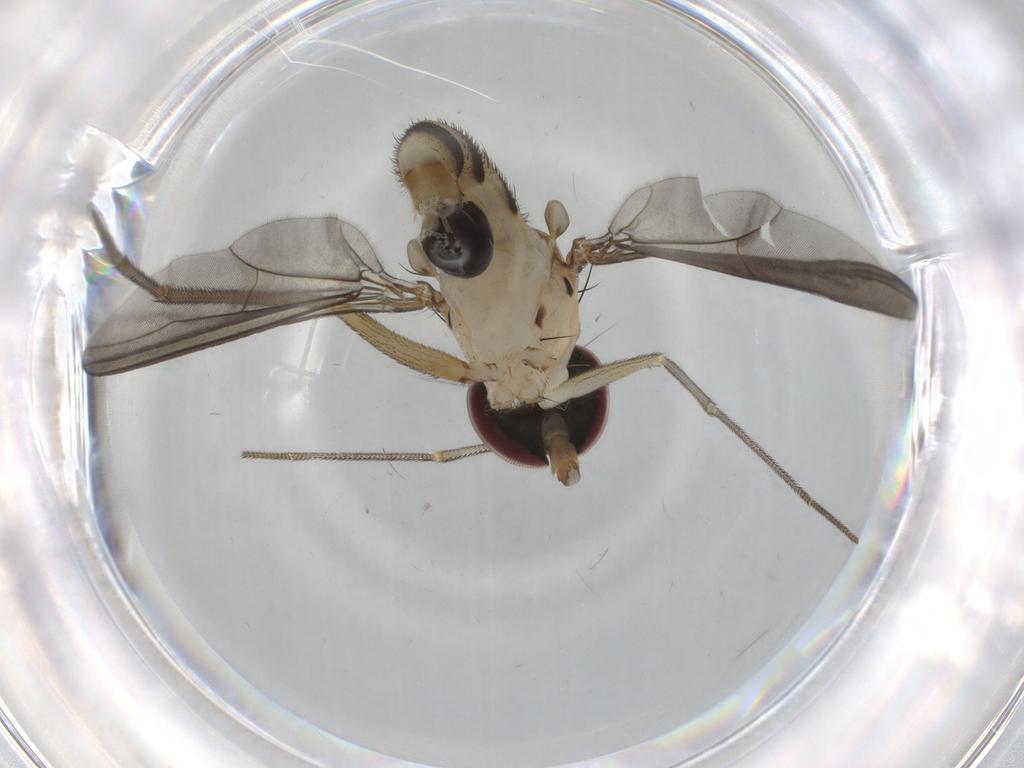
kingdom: Animalia
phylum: Arthropoda
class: Insecta
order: Diptera
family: Dolichopodidae
